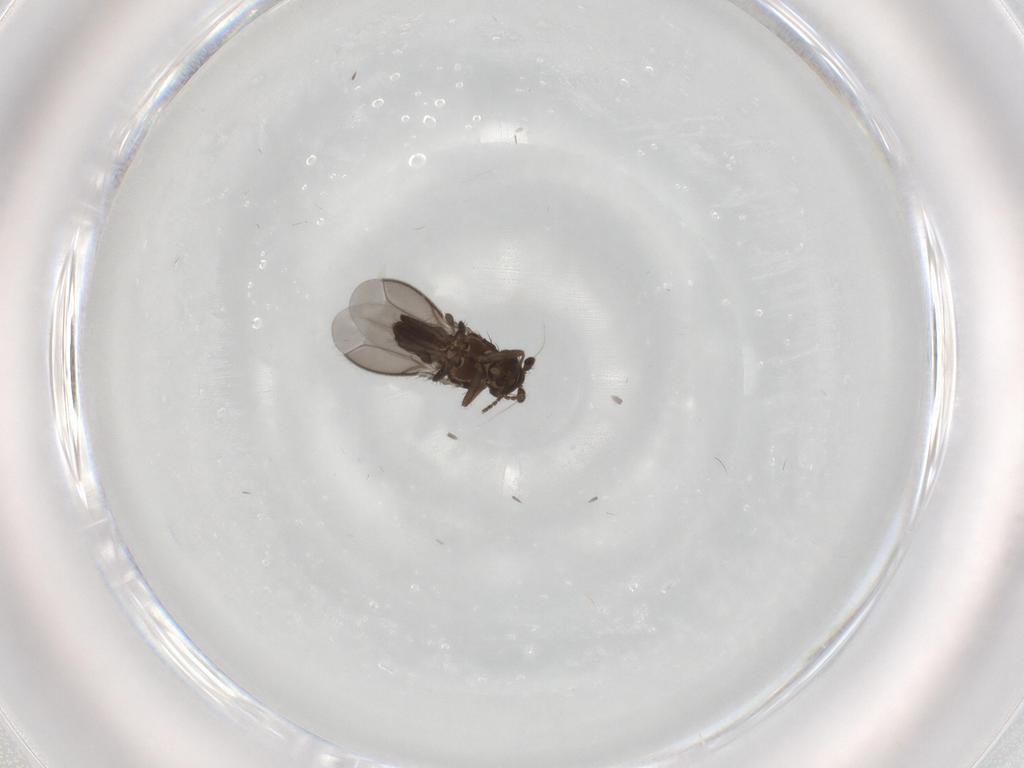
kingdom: Animalia
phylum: Arthropoda
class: Insecta
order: Diptera
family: Sphaeroceridae
